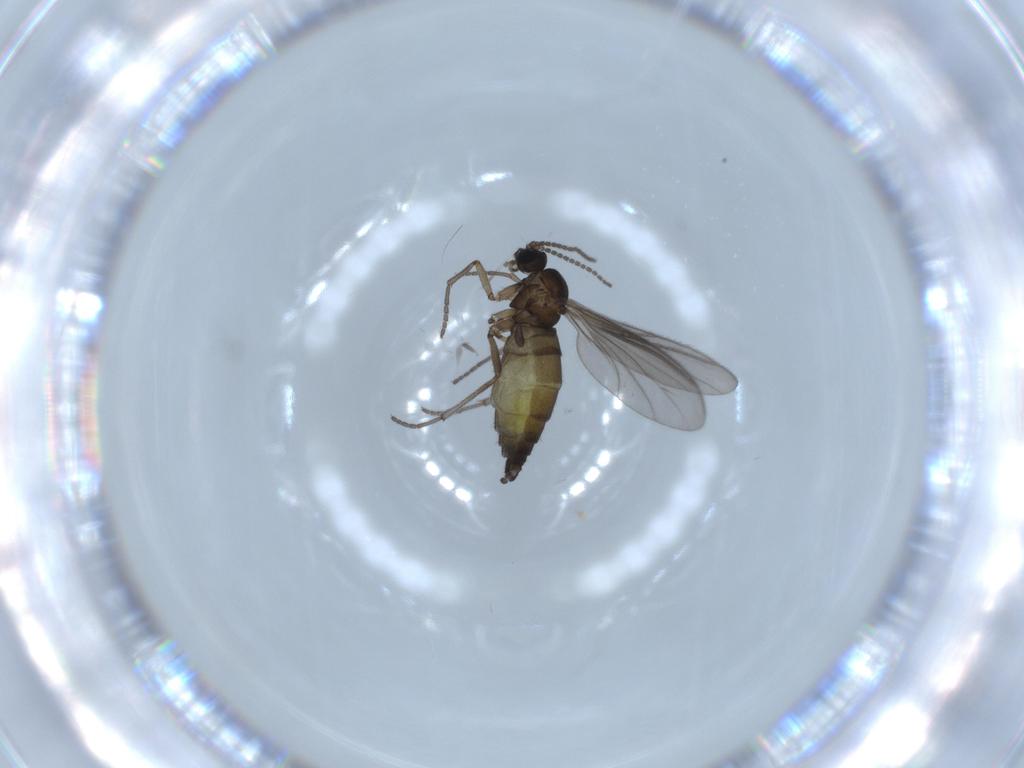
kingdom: Animalia
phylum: Arthropoda
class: Insecta
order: Diptera
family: Sciaridae
